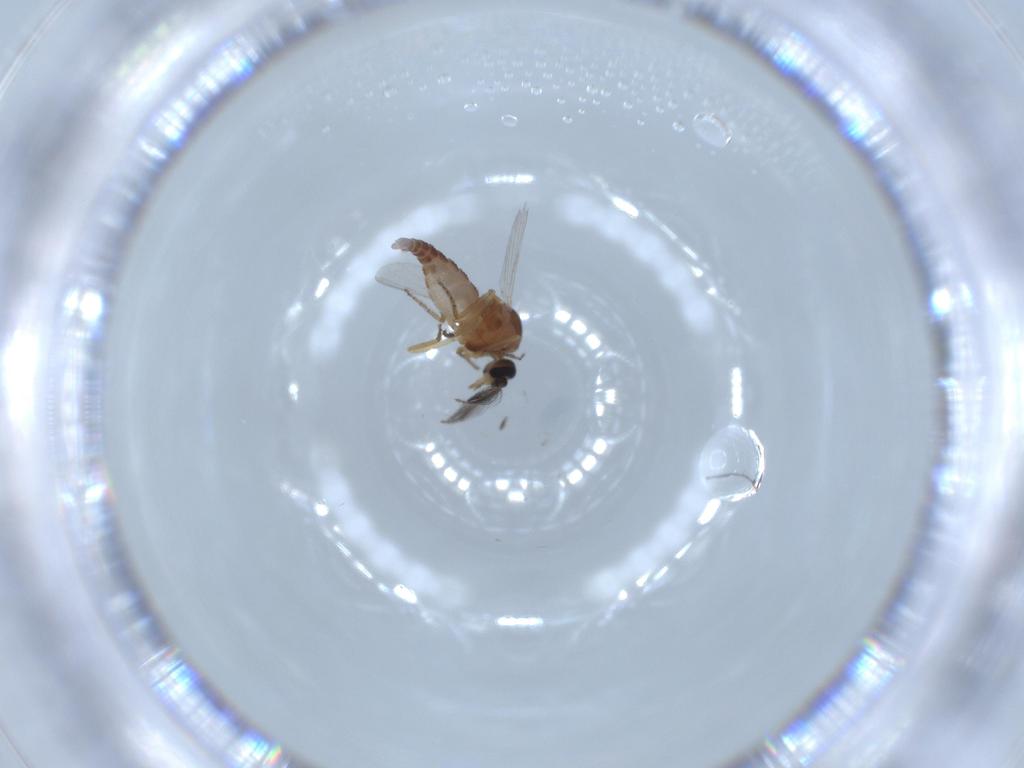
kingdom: Animalia
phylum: Arthropoda
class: Insecta
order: Diptera
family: Ceratopogonidae
